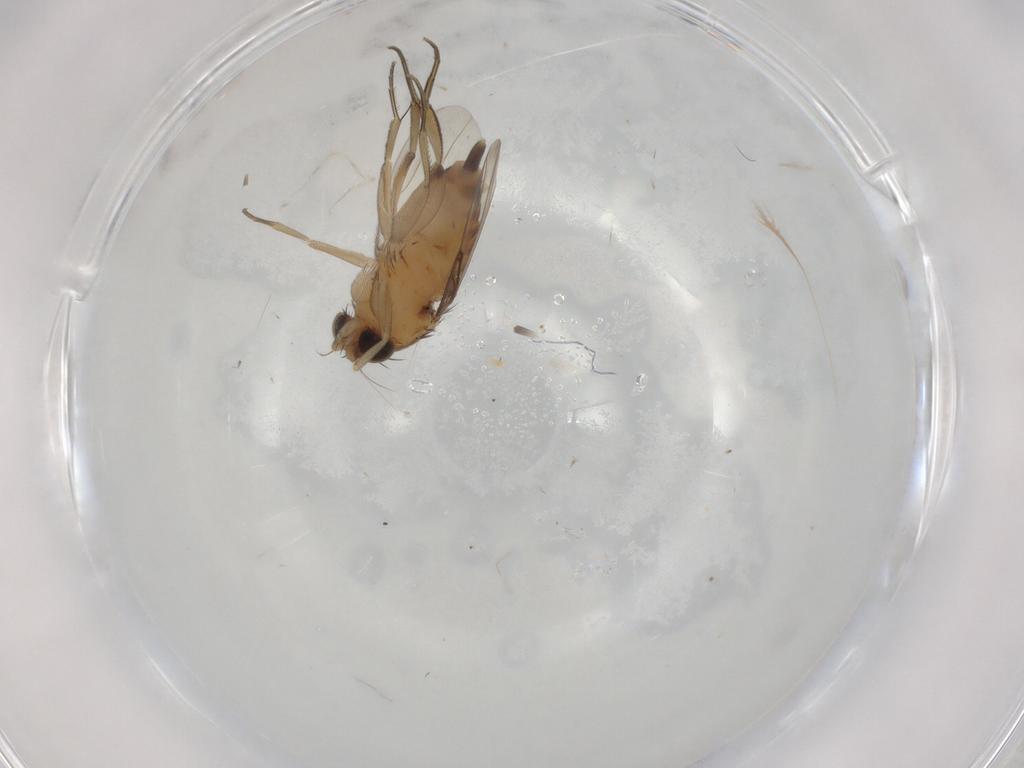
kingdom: Animalia
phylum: Arthropoda
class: Insecta
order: Diptera
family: Phoridae
